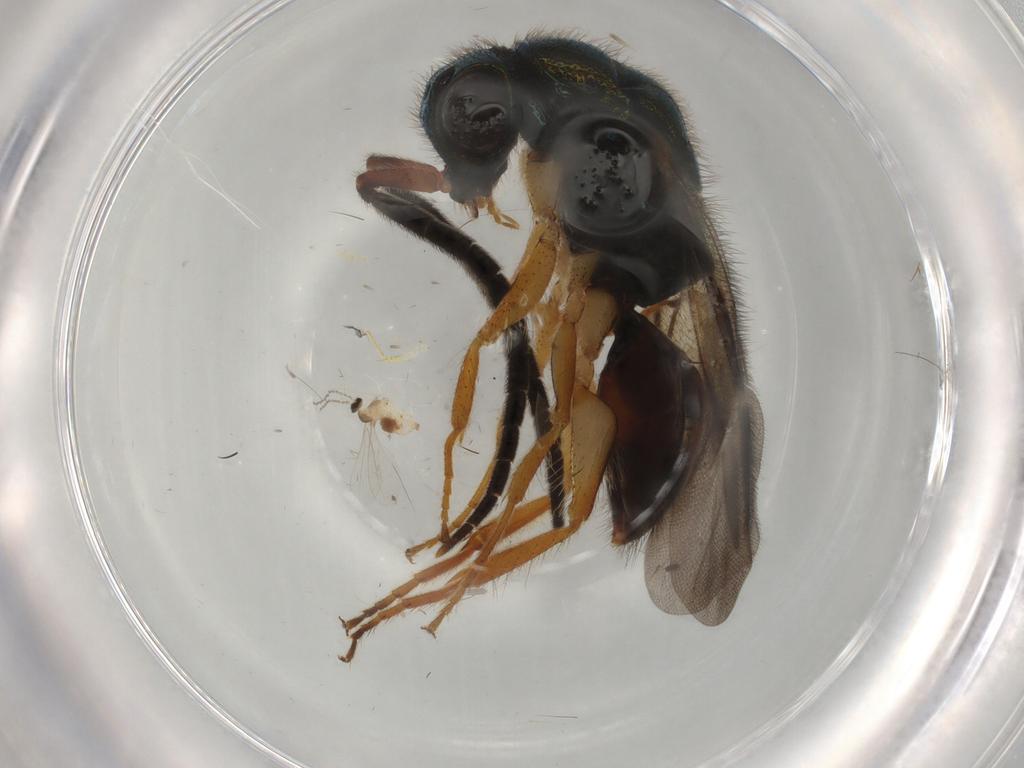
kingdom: Animalia
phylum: Arthropoda
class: Insecta
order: Hymenoptera
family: Chrysididae
